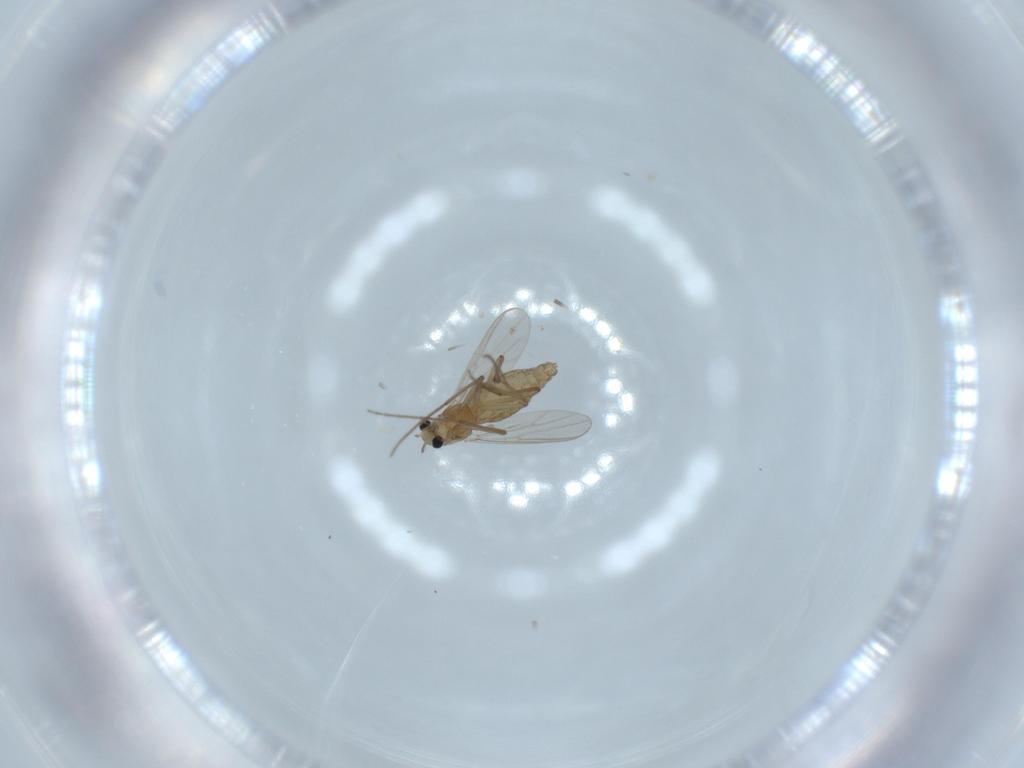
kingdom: Animalia
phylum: Arthropoda
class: Insecta
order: Diptera
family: Chironomidae
